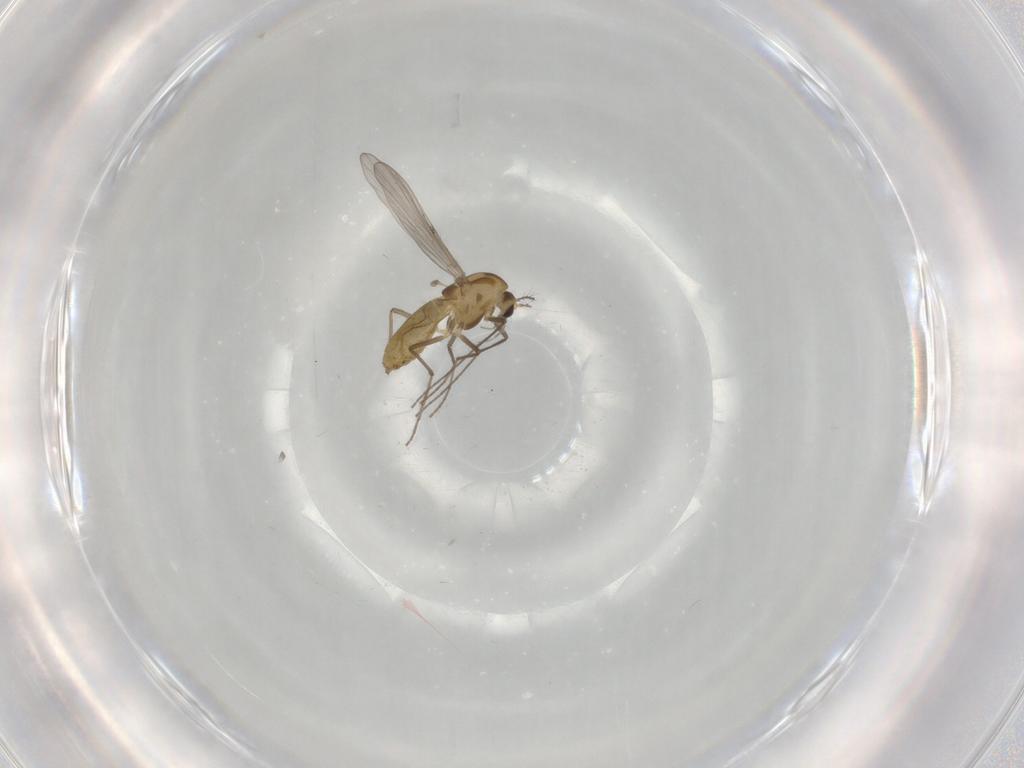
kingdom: Animalia
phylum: Arthropoda
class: Insecta
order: Diptera
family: Chironomidae
